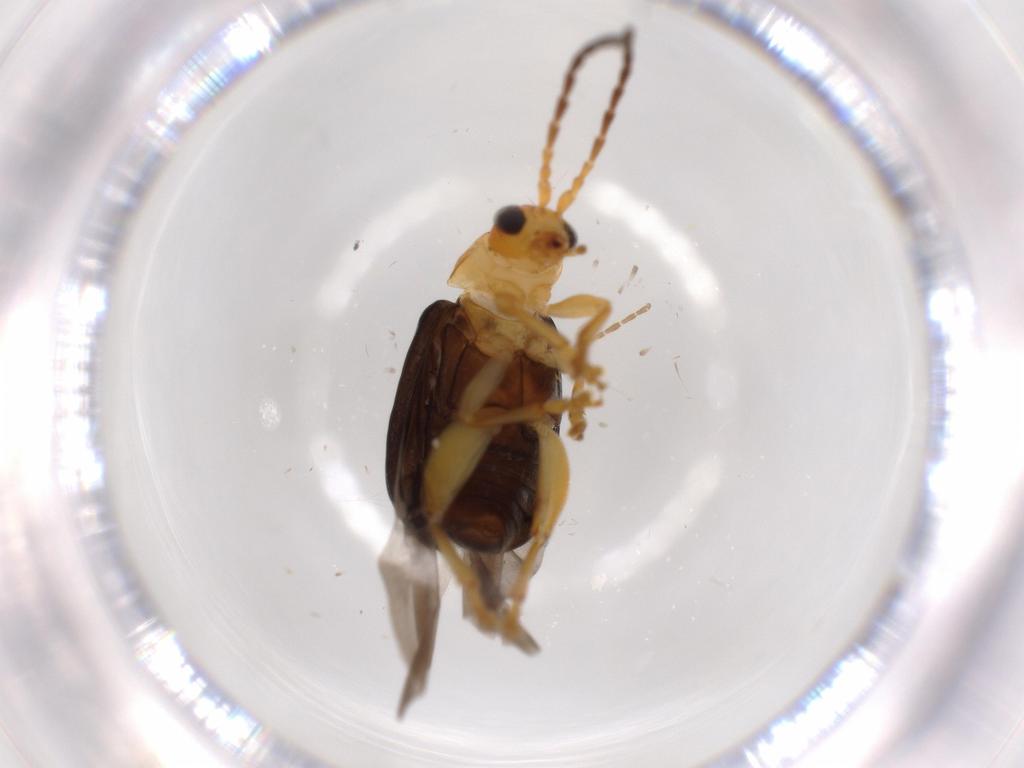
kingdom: Animalia
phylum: Arthropoda
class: Insecta
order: Coleoptera
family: Chrysomelidae
